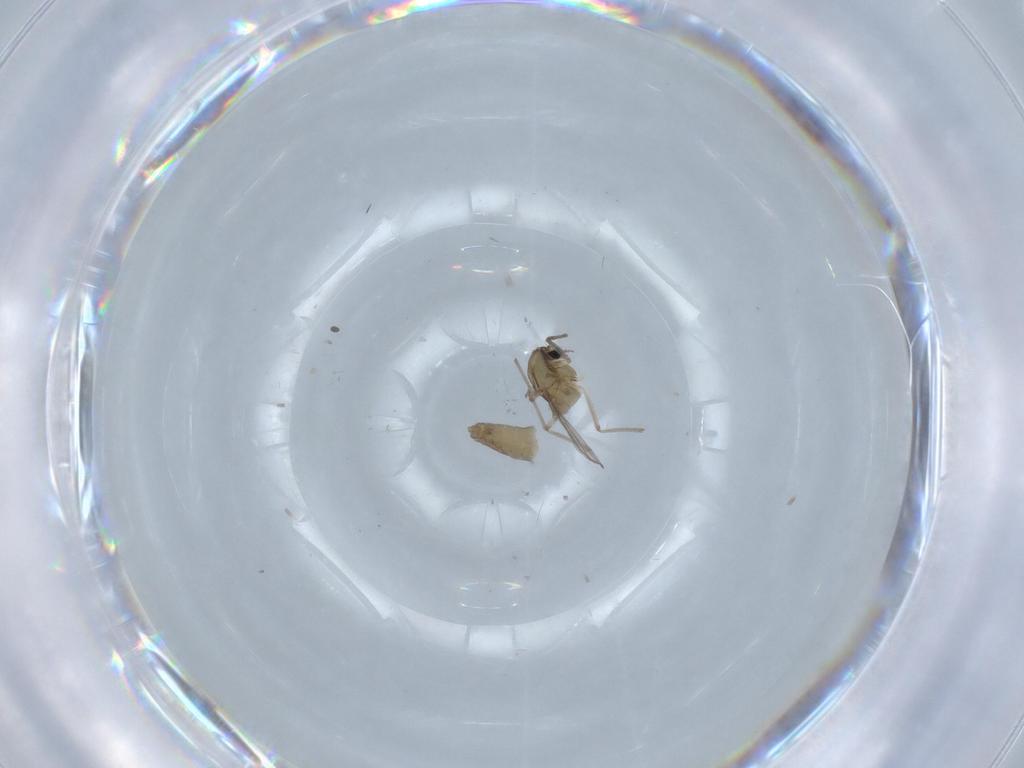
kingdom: Animalia
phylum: Arthropoda
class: Insecta
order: Diptera
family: Chironomidae
